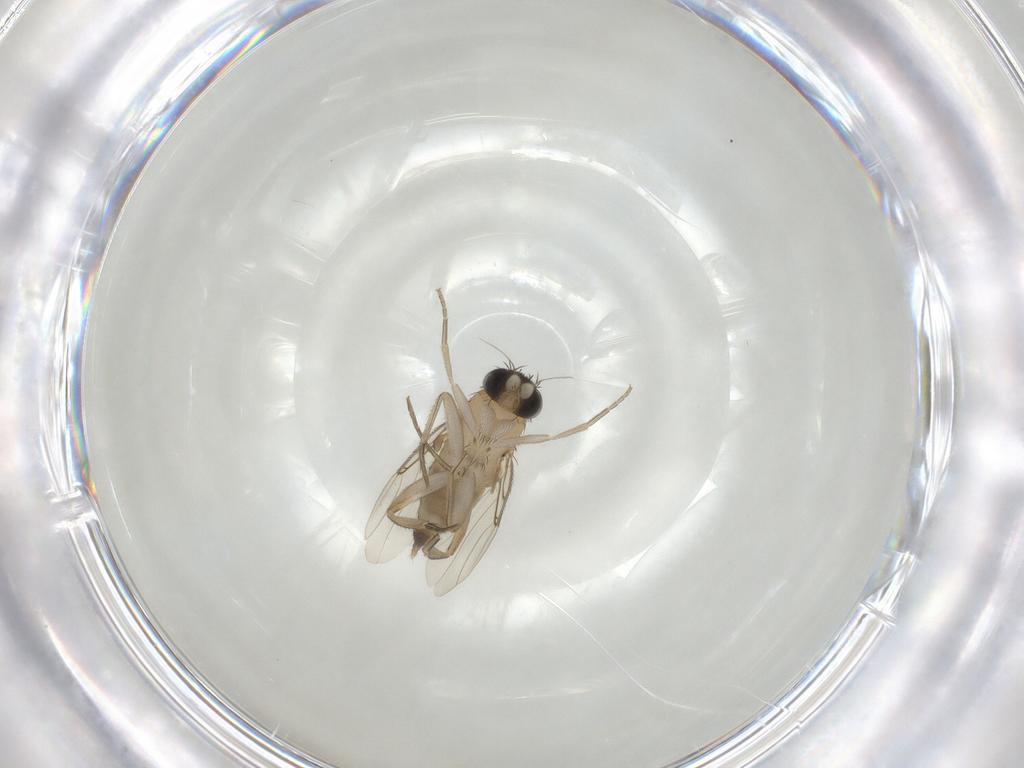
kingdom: Animalia
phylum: Arthropoda
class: Insecta
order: Diptera
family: Phoridae
